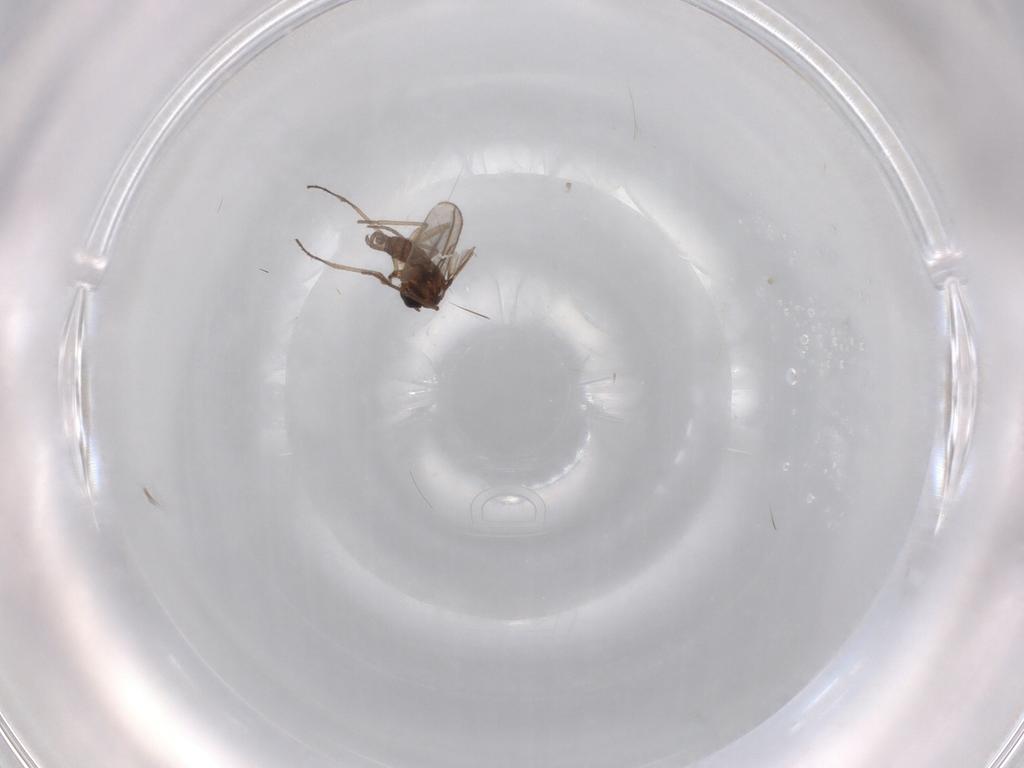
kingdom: Animalia
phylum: Arthropoda
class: Insecta
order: Diptera
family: Sciaridae
